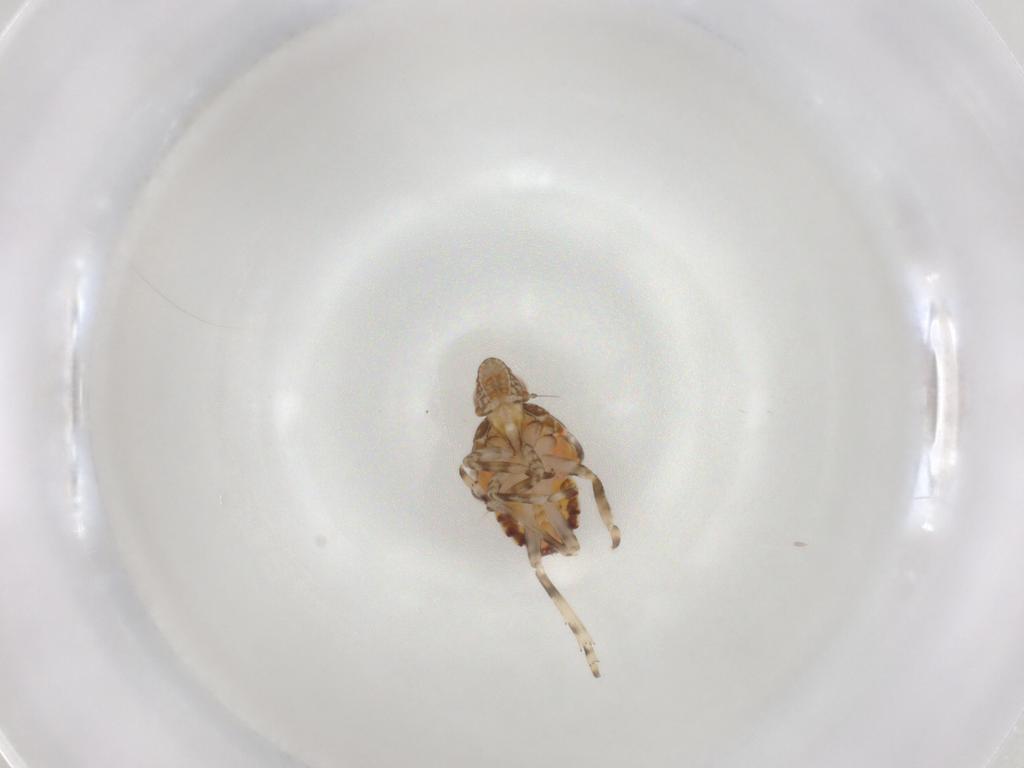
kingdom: Animalia
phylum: Arthropoda
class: Insecta
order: Hemiptera
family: Tropiduchidae
